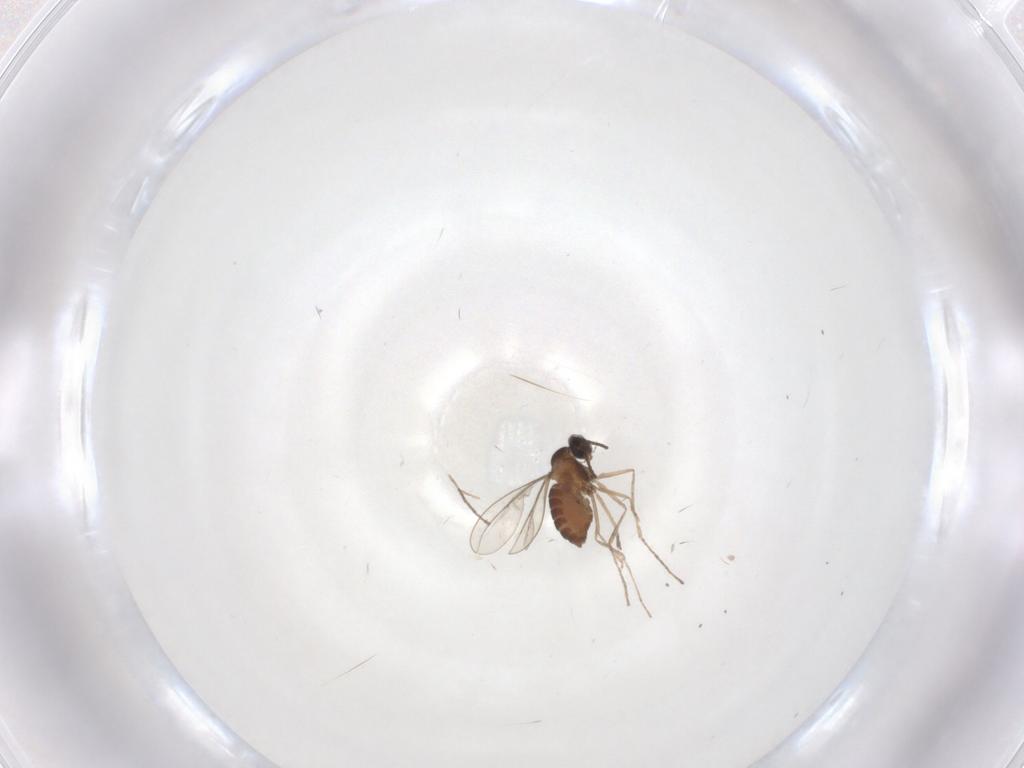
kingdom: Animalia
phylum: Arthropoda
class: Insecta
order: Diptera
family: Cecidomyiidae
